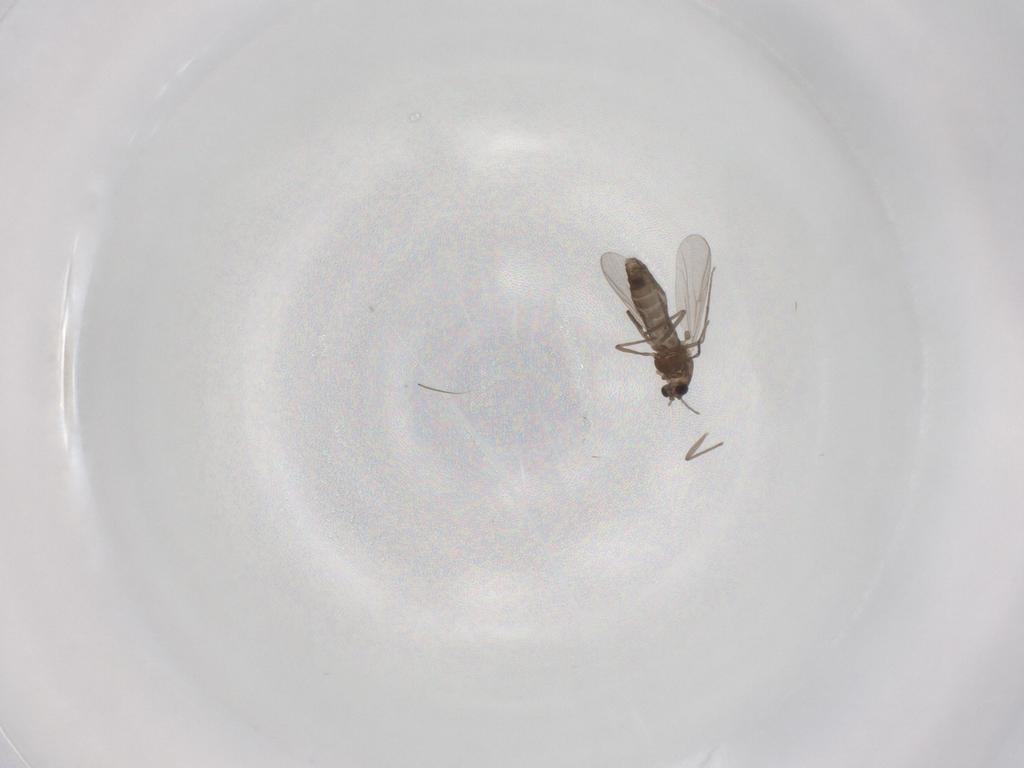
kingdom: Animalia
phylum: Arthropoda
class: Insecta
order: Diptera
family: Chironomidae
